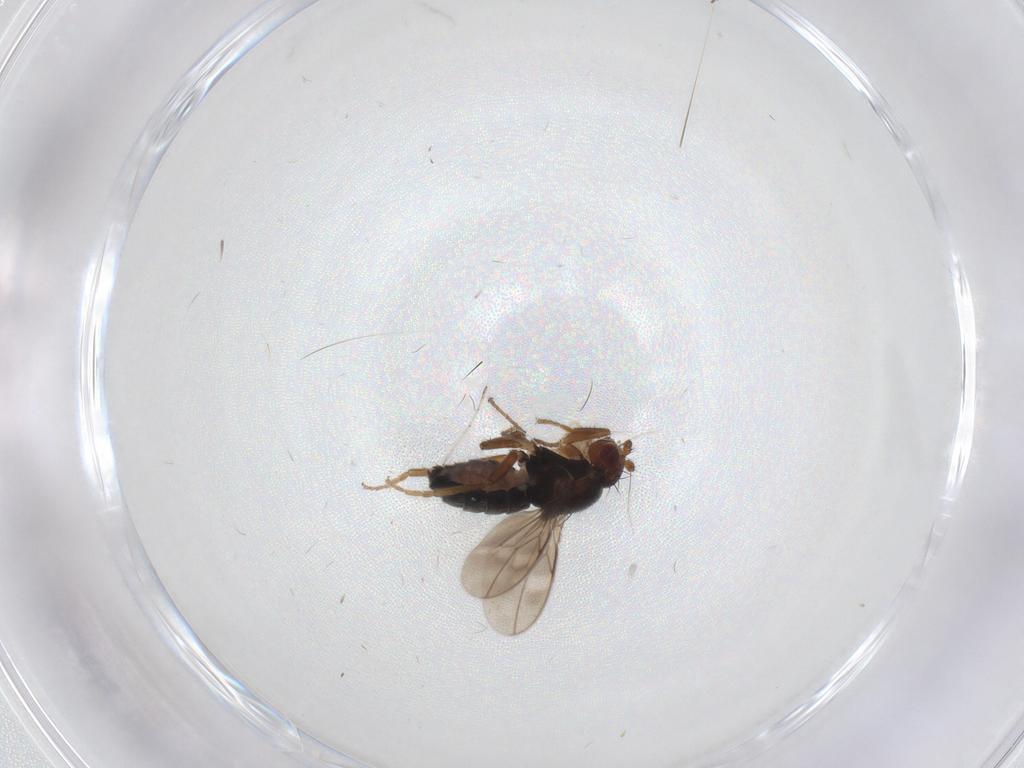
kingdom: Animalia
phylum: Arthropoda
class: Insecta
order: Diptera
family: Sphaeroceridae
